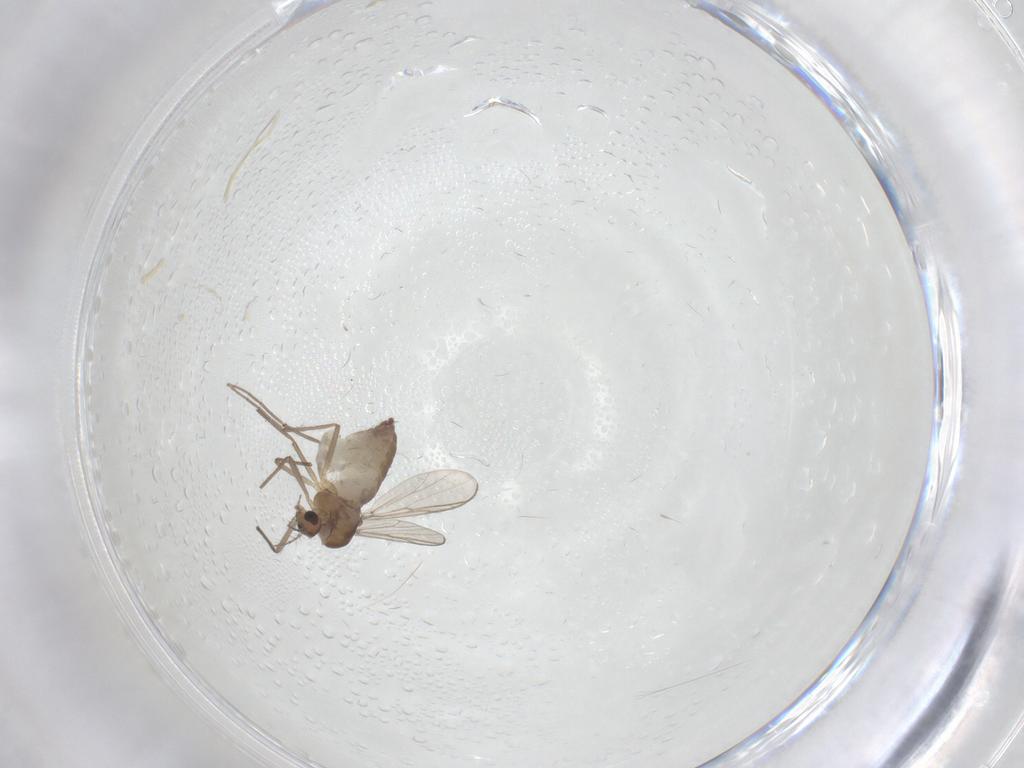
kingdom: Animalia
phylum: Arthropoda
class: Insecta
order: Diptera
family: Chironomidae
